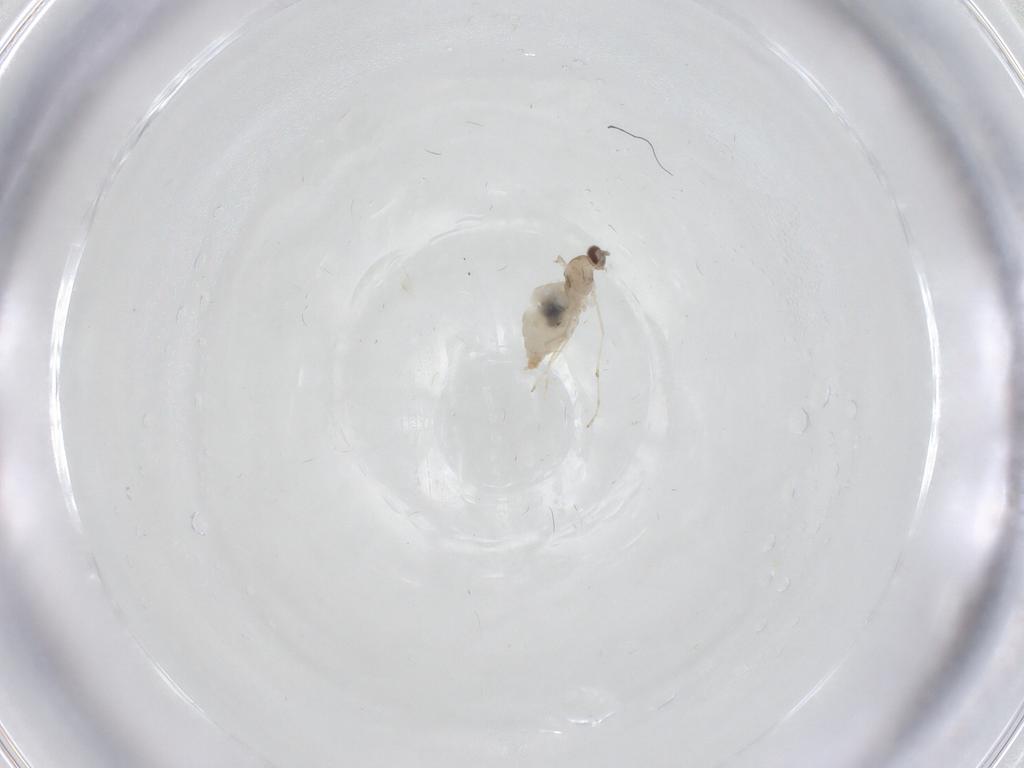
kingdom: Animalia
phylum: Arthropoda
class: Insecta
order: Diptera
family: Cecidomyiidae
